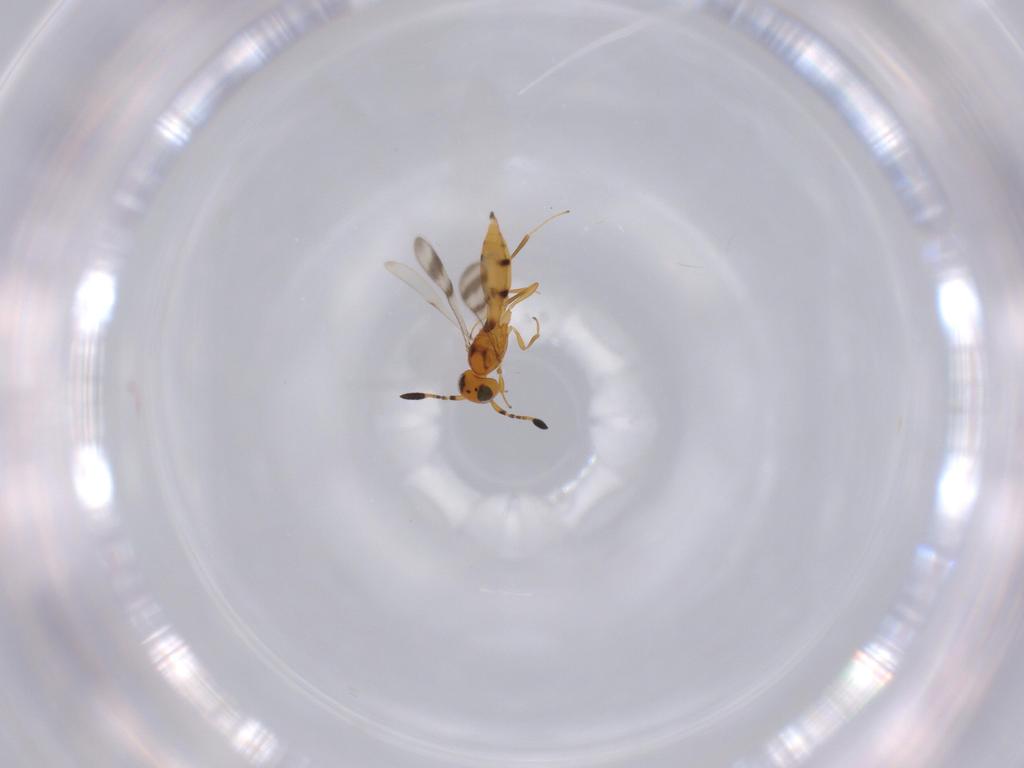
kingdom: Animalia
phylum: Arthropoda
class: Insecta
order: Hymenoptera
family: Scelionidae
